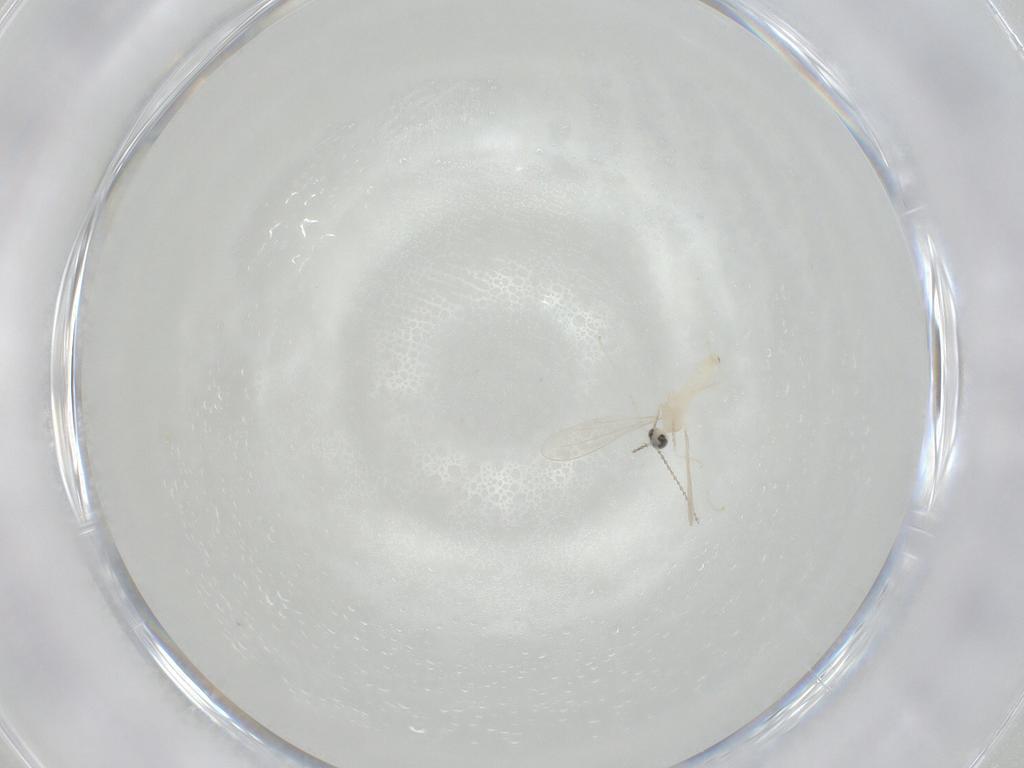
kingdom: Animalia
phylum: Arthropoda
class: Insecta
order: Diptera
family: Cecidomyiidae
